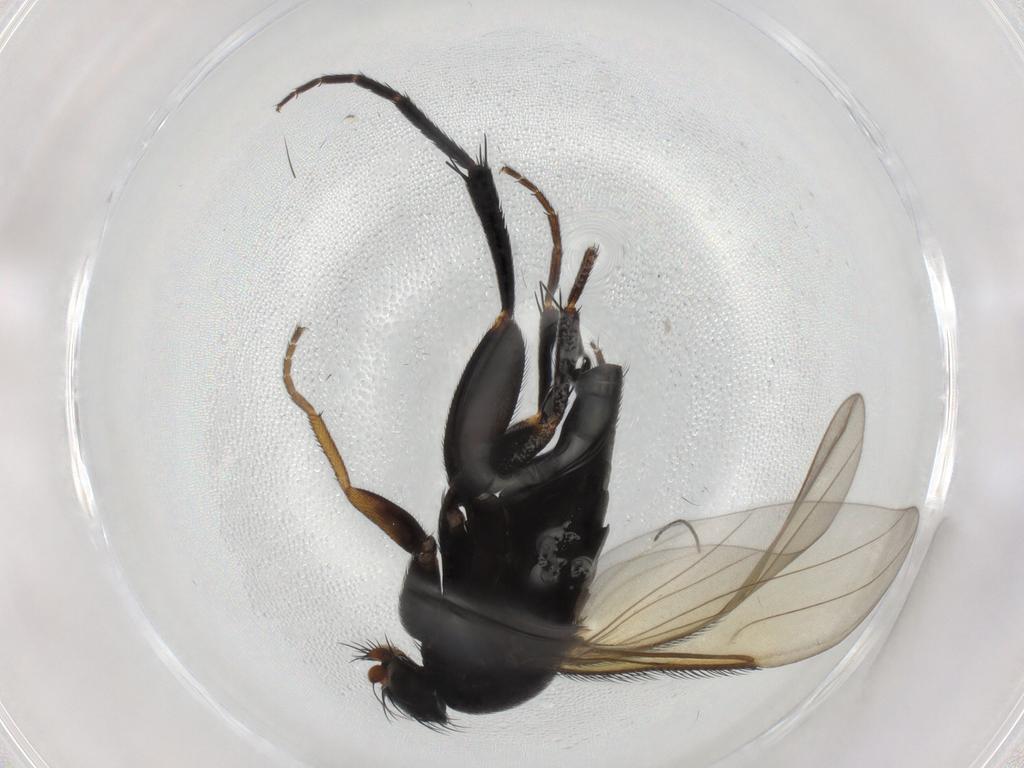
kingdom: Animalia
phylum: Arthropoda
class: Insecta
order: Diptera
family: Phoridae
